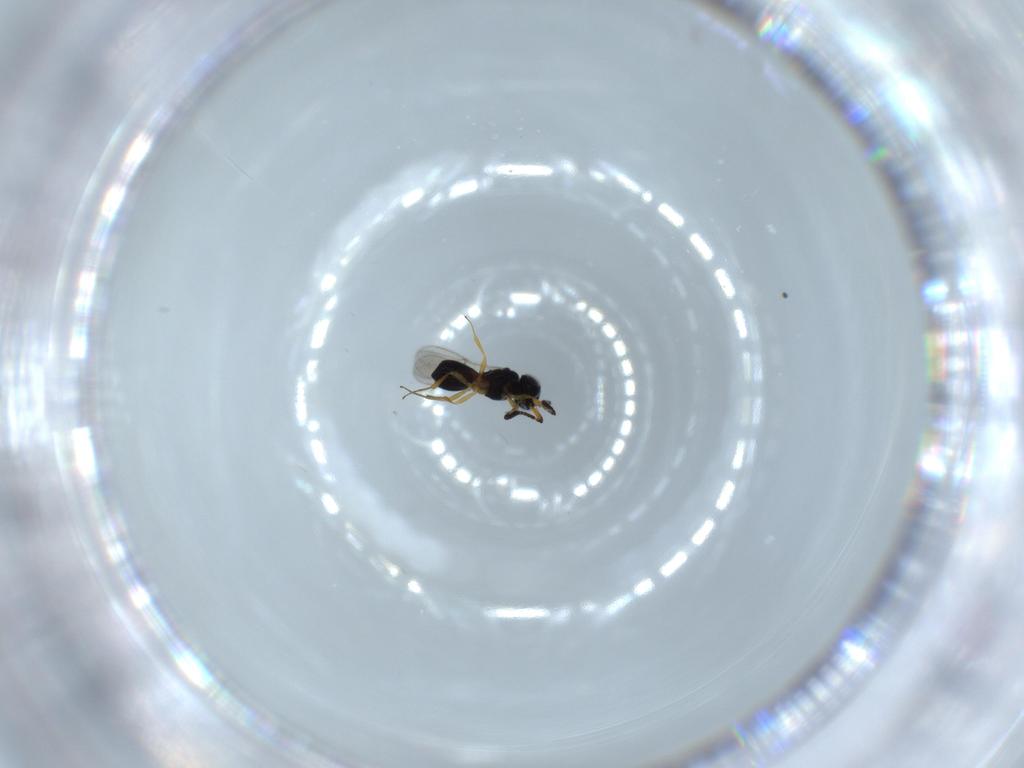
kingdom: Animalia
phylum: Arthropoda
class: Insecta
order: Hymenoptera
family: Scelionidae
